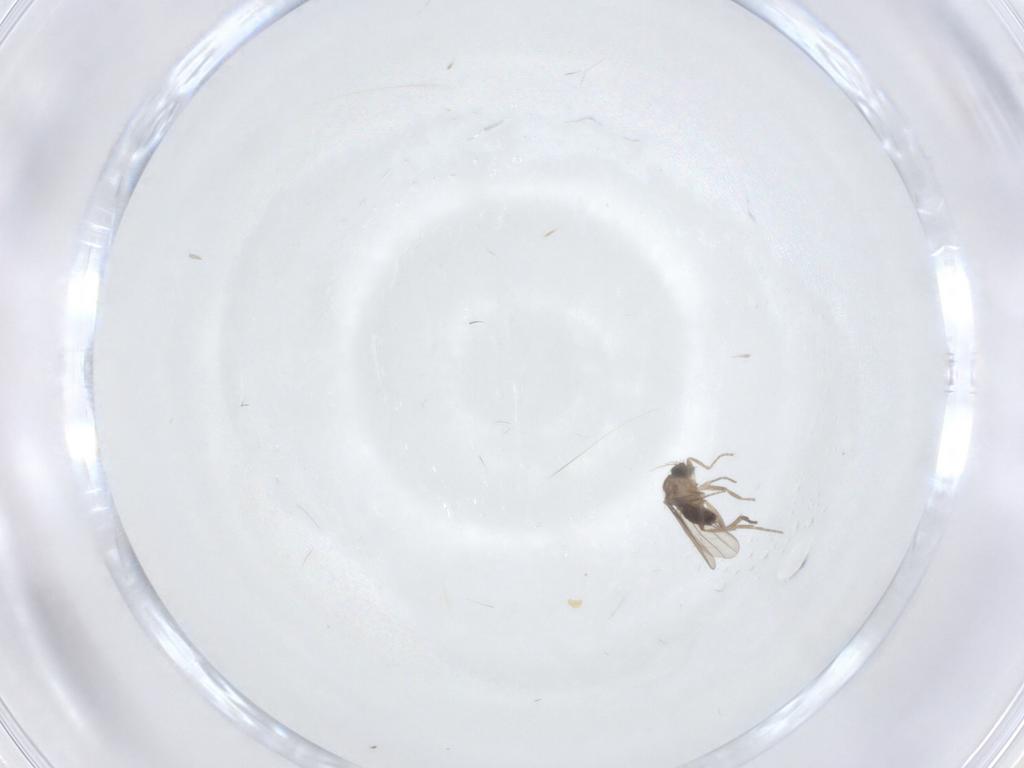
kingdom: Animalia
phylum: Arthropoda
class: Insecta
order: Diptera
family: Phoridae
